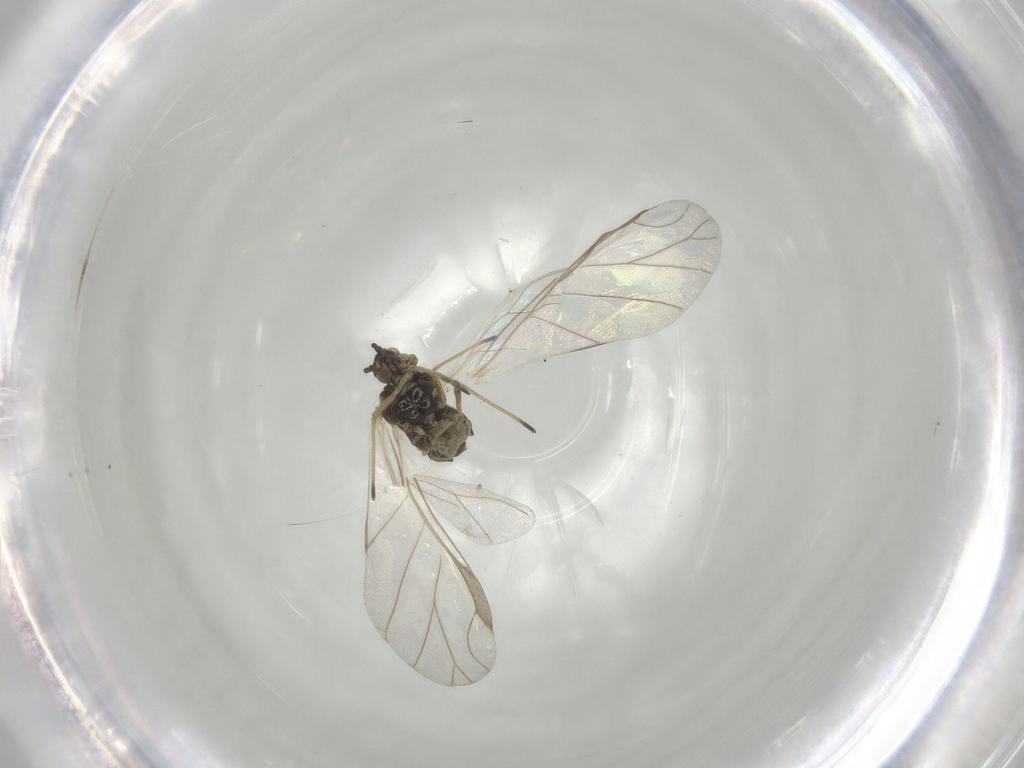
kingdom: Animalia
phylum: Arthropoda
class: Insecta
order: Hemiptera
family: Aphididae
